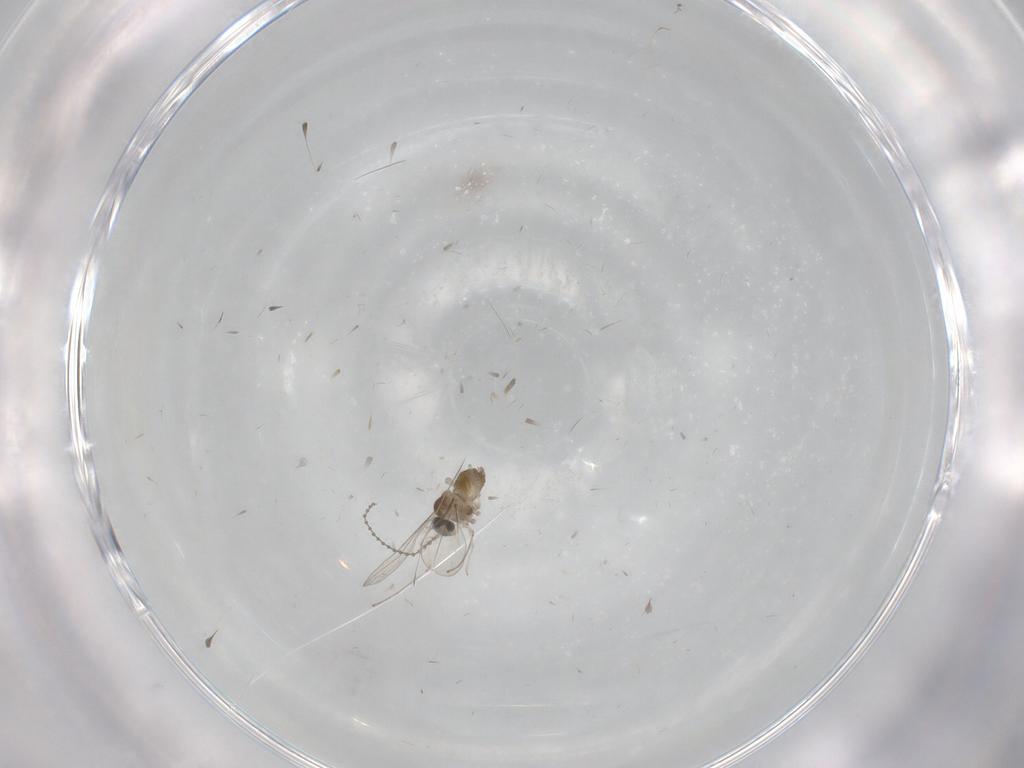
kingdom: Animalia
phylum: Arthropoda
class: Insecta
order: Diptera
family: Cecidomyiidae
